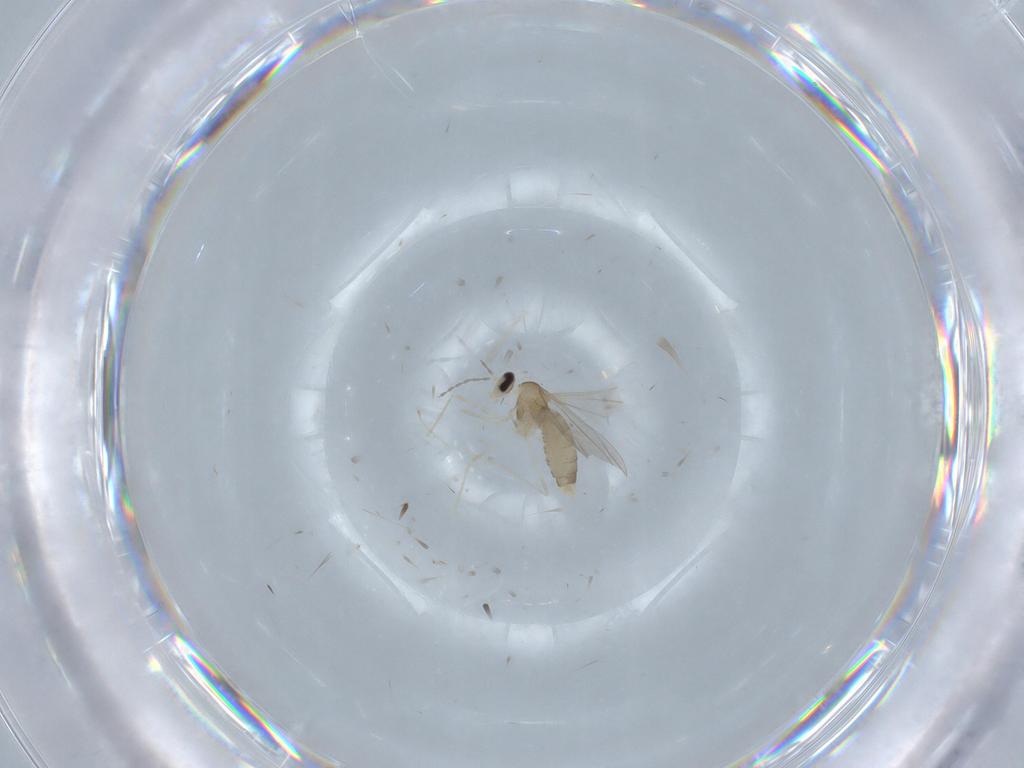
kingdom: Animalia
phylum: Arthropoda
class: Insecta
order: Diptera
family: Cecidomyiidae
